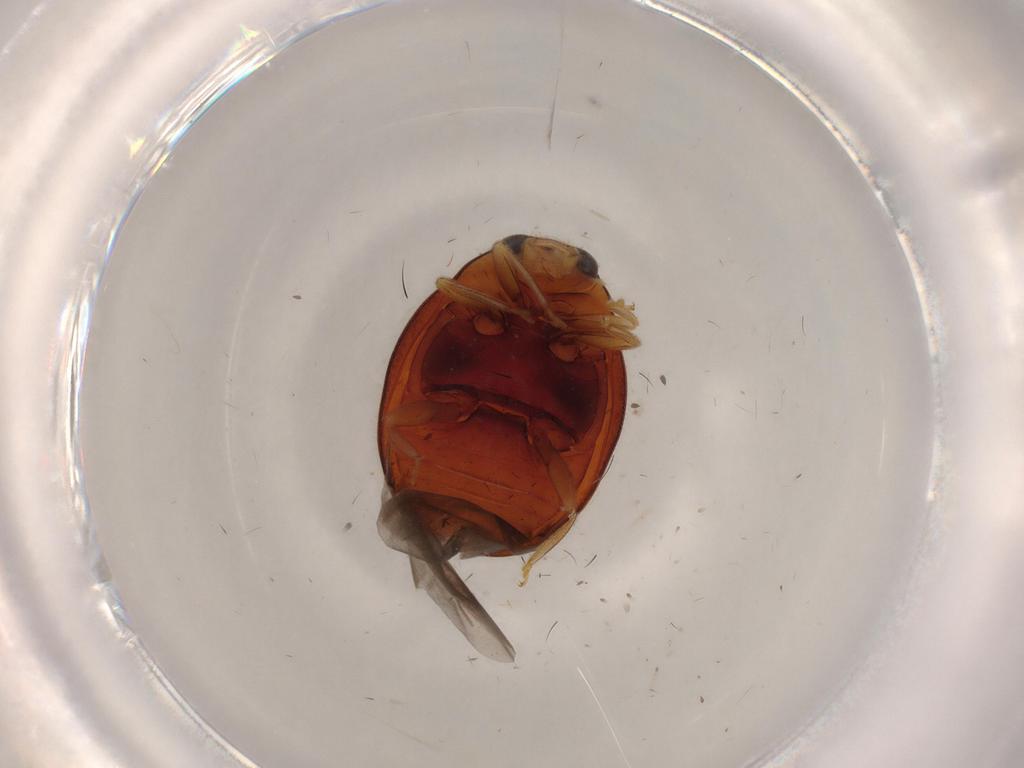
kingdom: Animalia
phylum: Arthropoda
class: Insecta
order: Coleoptera
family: Coccinellidae
